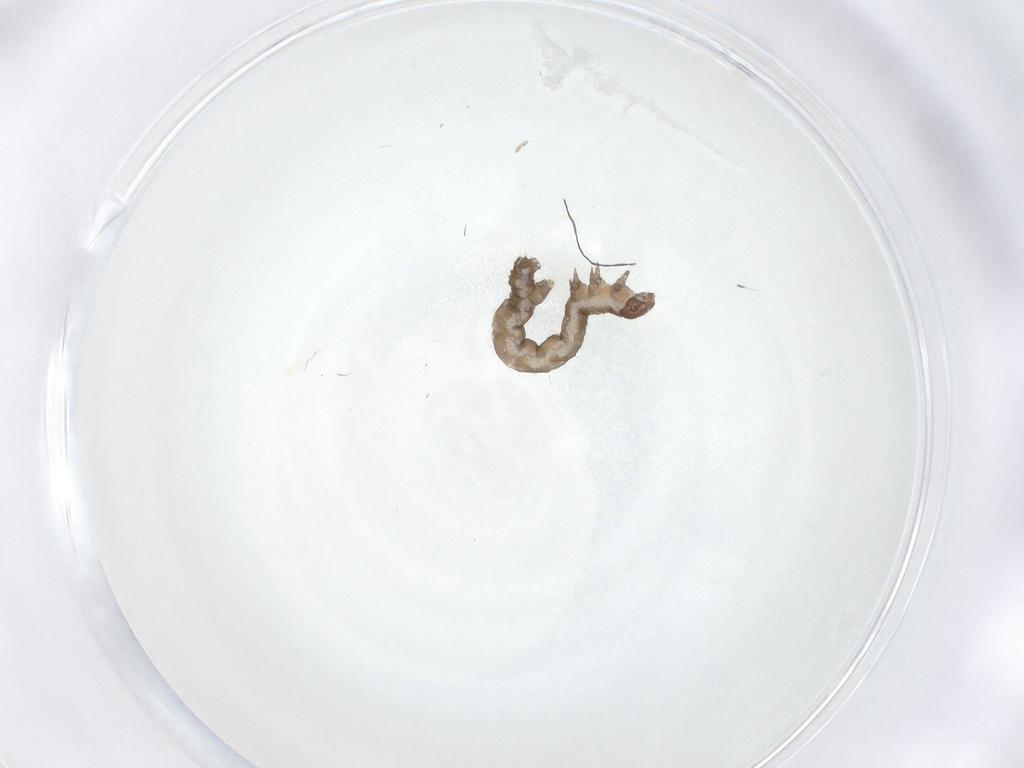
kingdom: Animalia
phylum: Arthropoda
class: Insecta
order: Lepidoptera
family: Geometridae
